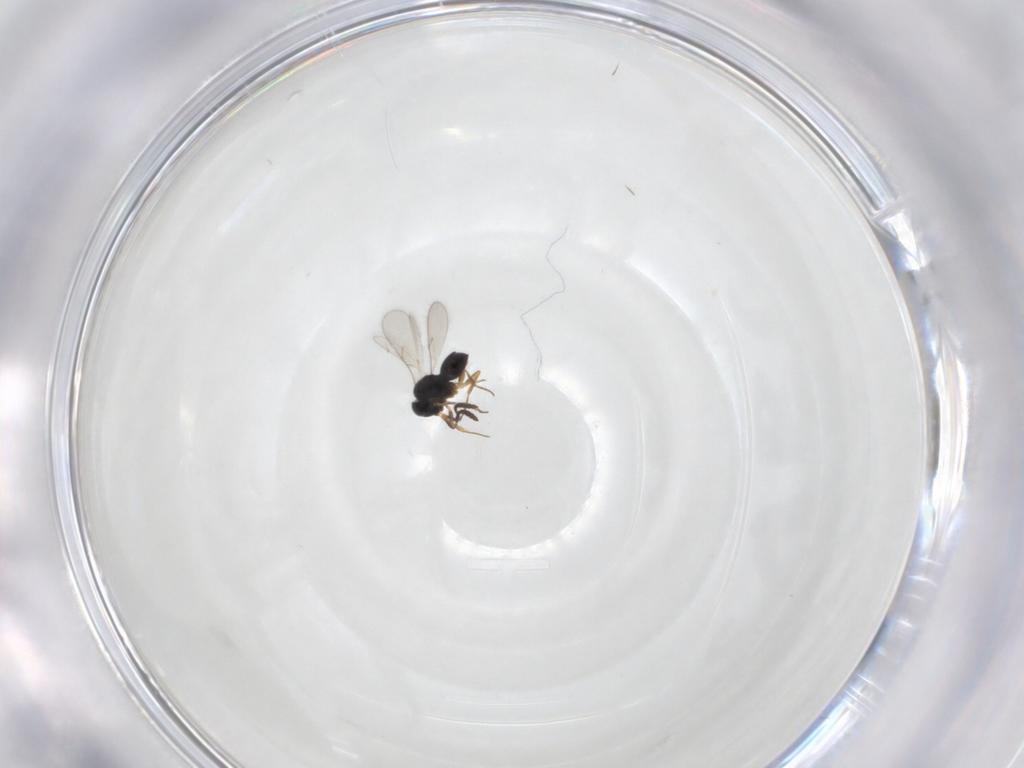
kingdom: Animalia
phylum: Arthropoda
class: Insecta
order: Hymenoptera
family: Scelionidae
